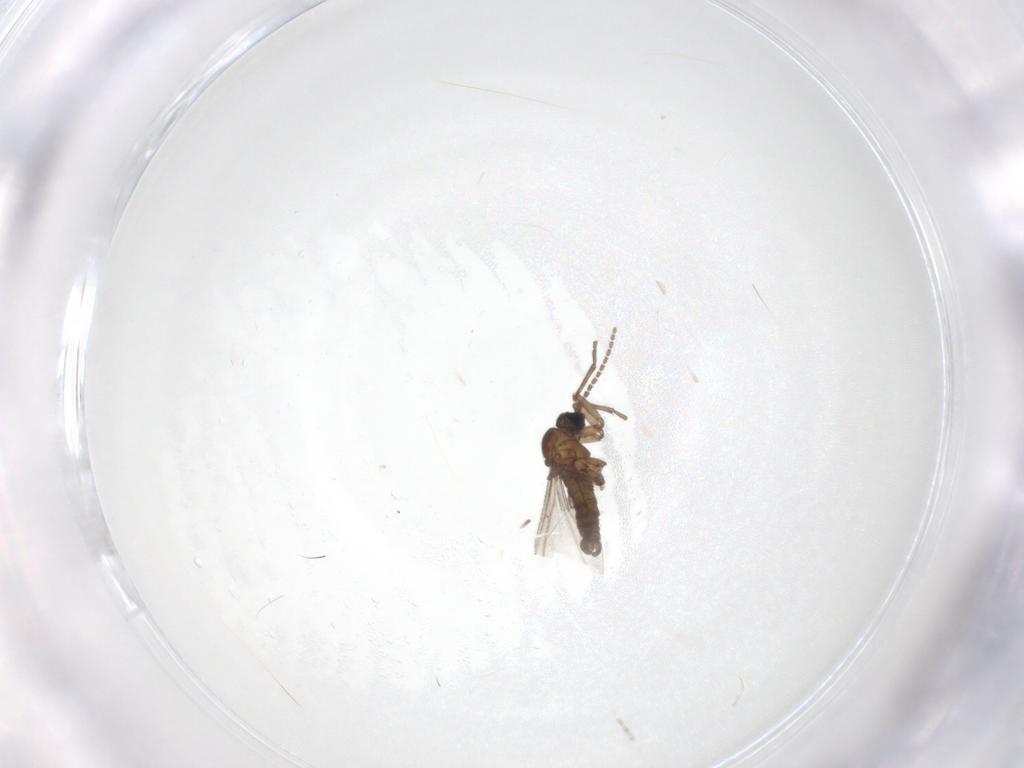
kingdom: Animalia
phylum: Arthropoda
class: Insecta
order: Diptera
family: Sciaridae
